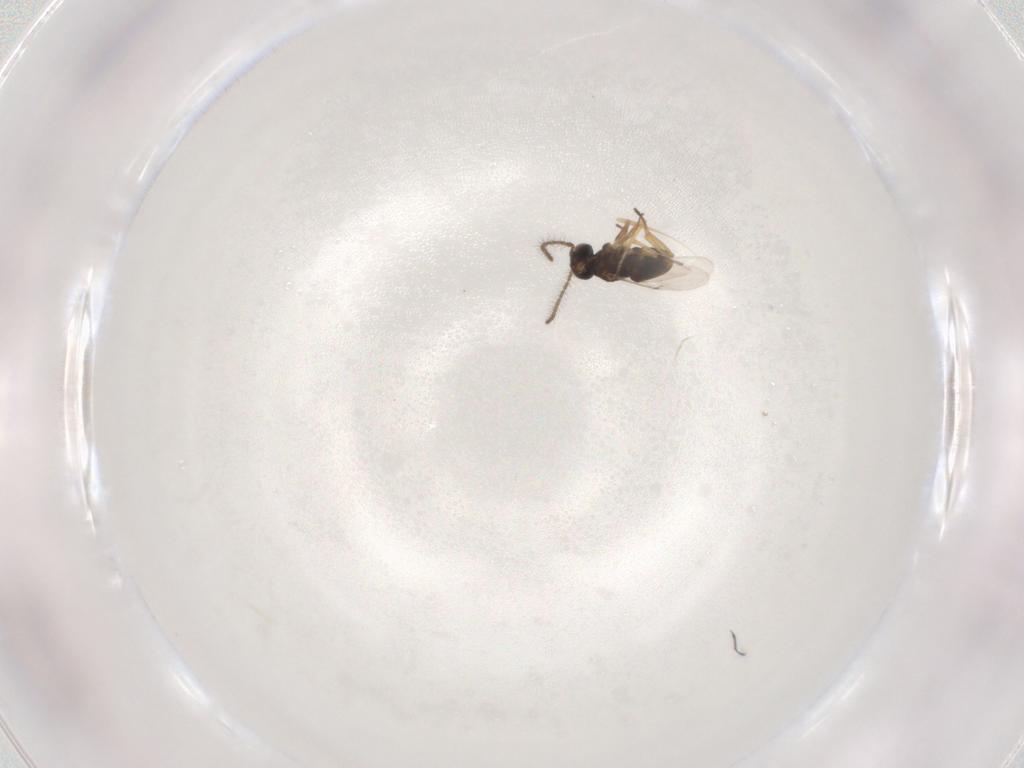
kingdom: Animalia
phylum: Arthropoda
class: Insecta
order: Hymenoptera
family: Encyrtidae
